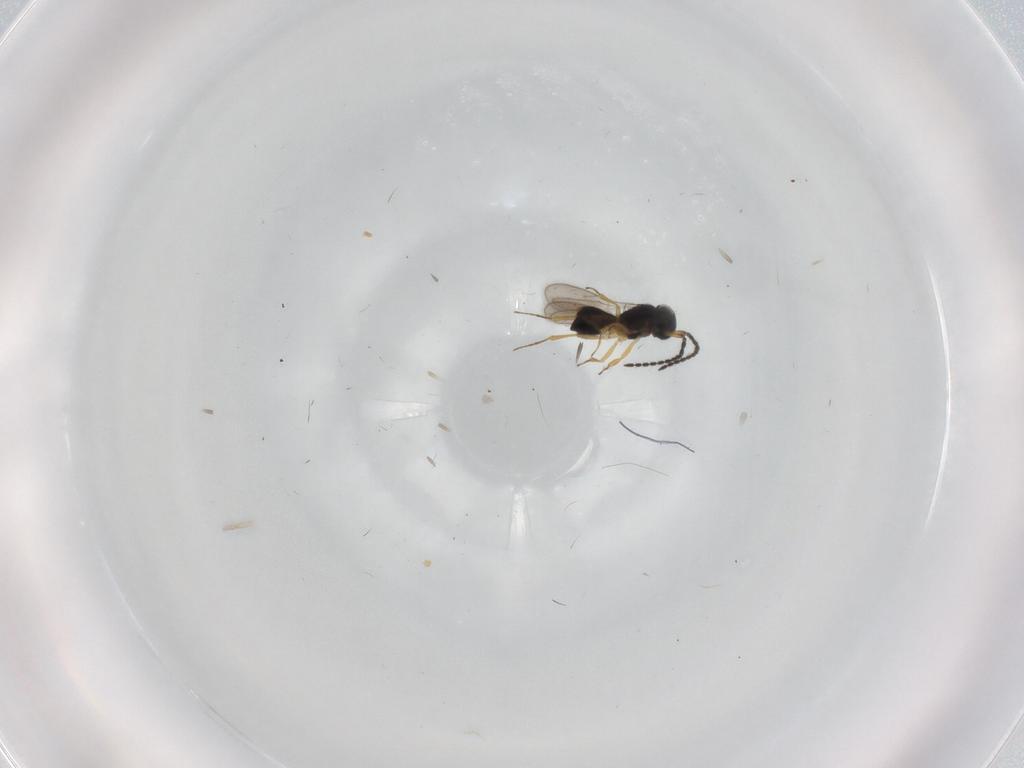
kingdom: Animalia
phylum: Arthropoda
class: Insecta
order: Hymenoptera
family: Scelionidae
